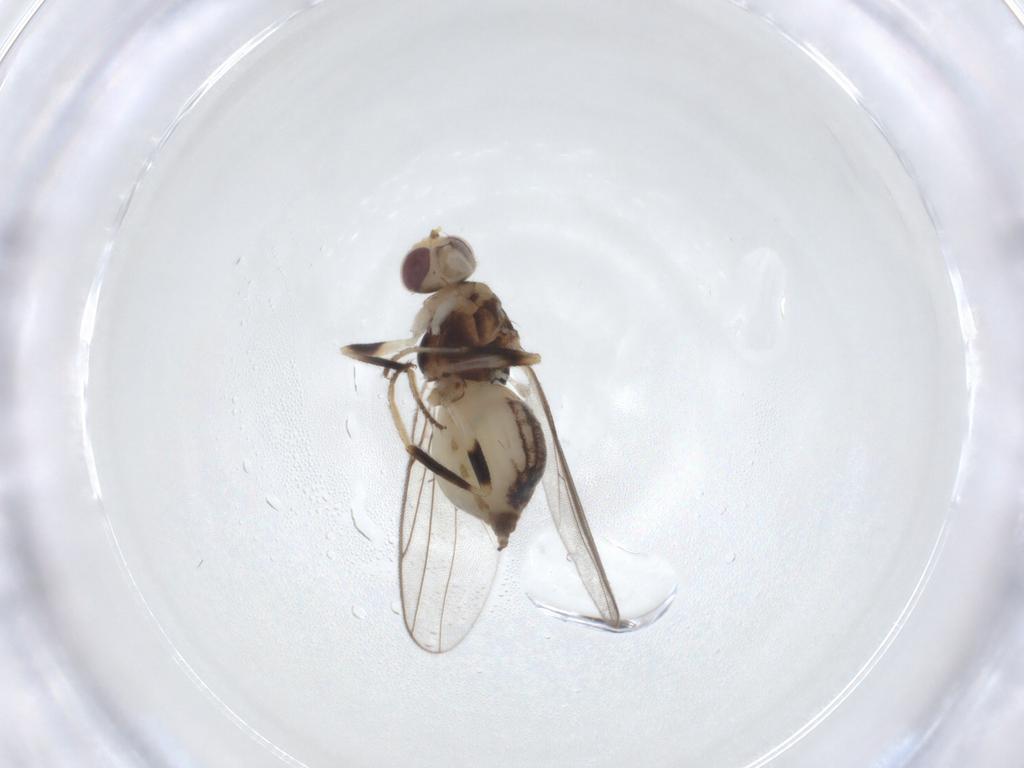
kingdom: Animalia
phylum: Arthropoda
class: Insecta
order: Diptera
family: Chloropidae
